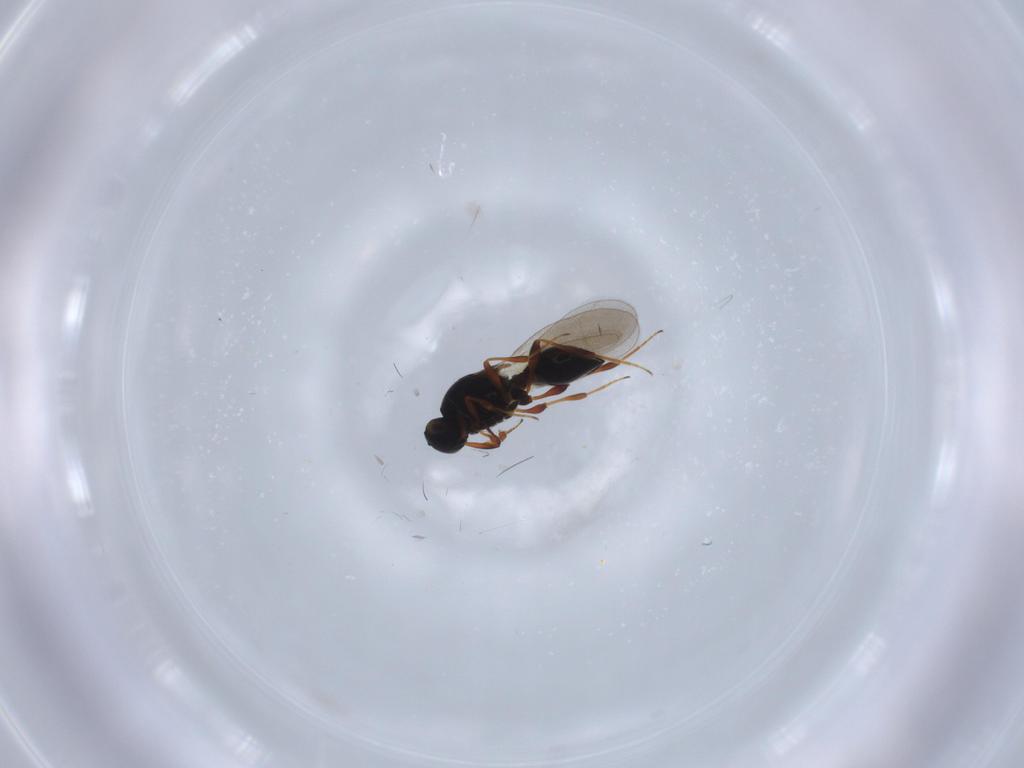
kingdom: Animalia
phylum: Arthropoda
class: Insecta
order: Hymenoptera
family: Platygastridae
